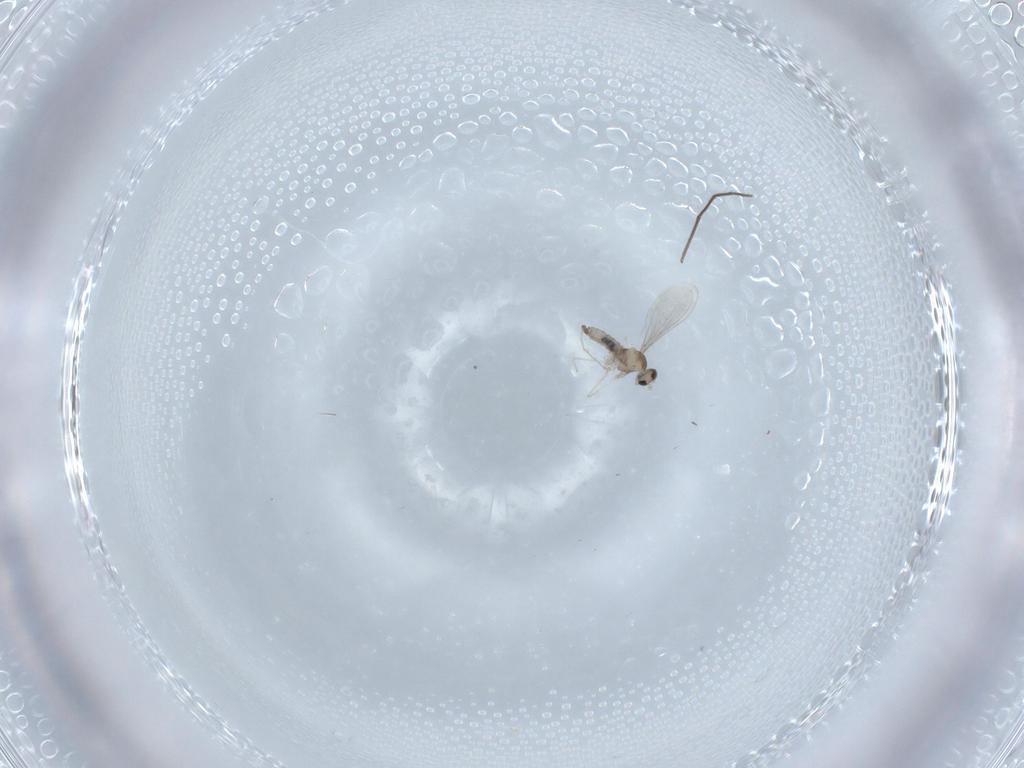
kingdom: Animalia
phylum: Arthropoda
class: Insecta
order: Diptera
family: Cecidomyiidae
